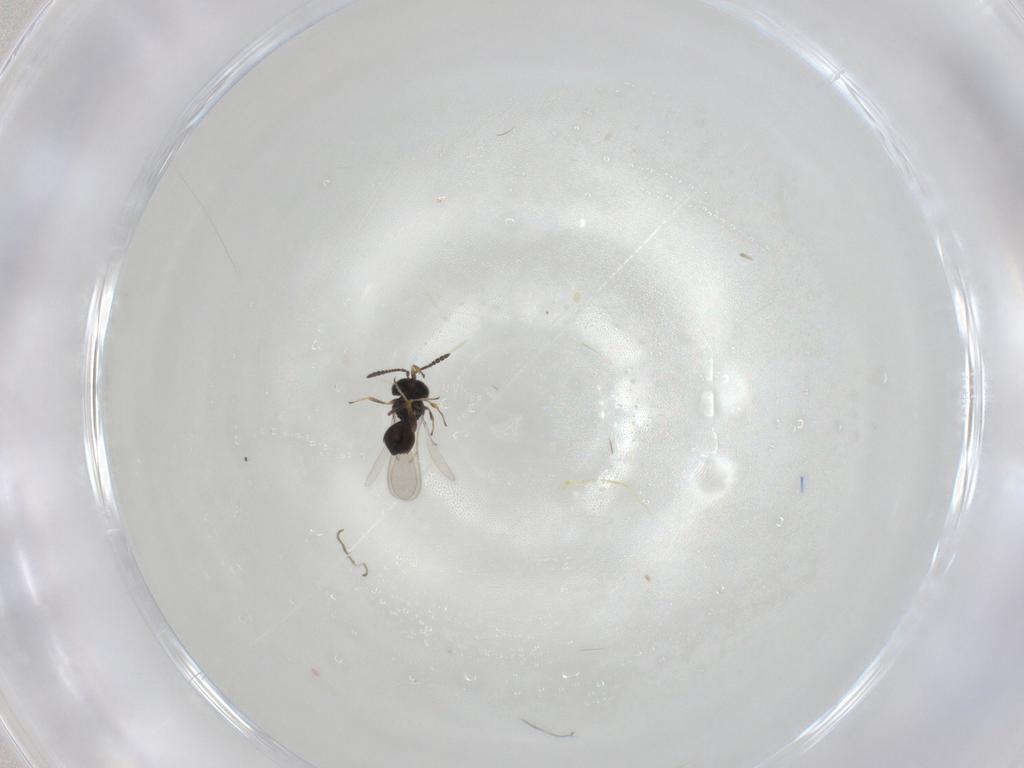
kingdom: Animalia
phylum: Arthropoda
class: Insecta
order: Hymenoptera
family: Scelionidae
